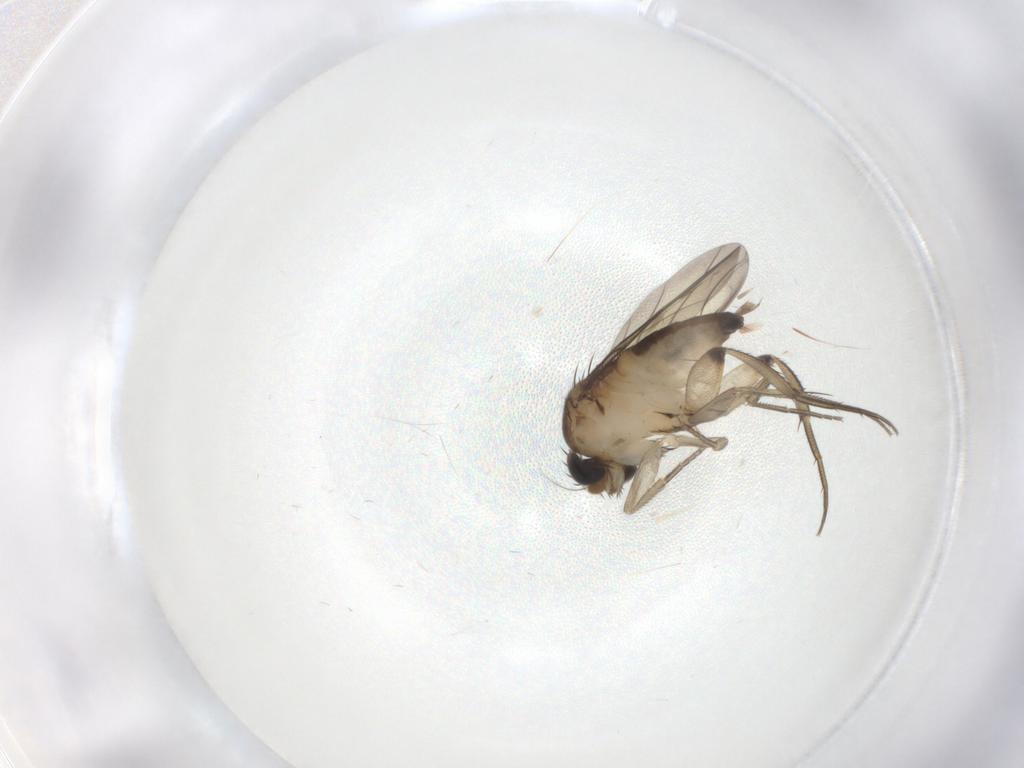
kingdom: Animalia
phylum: Arthropoda
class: Insecta
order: Diptera
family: Phoridae
